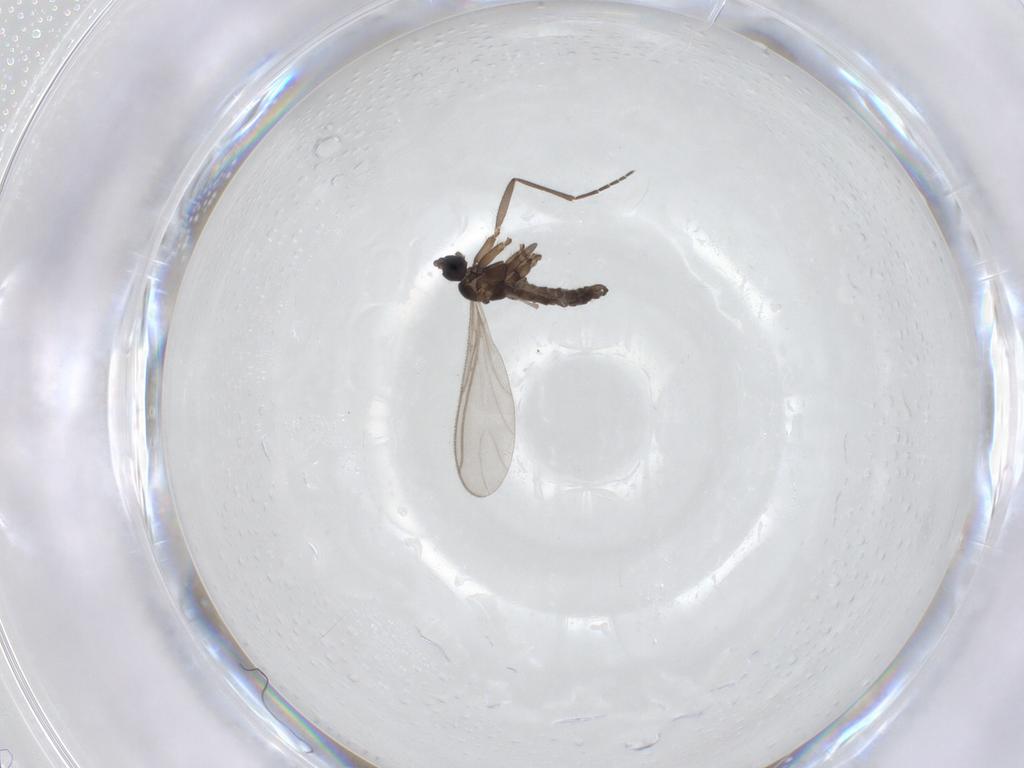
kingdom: Animalia
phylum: Arthropoda
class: Insecta
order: Diptera
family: Sciaridae
